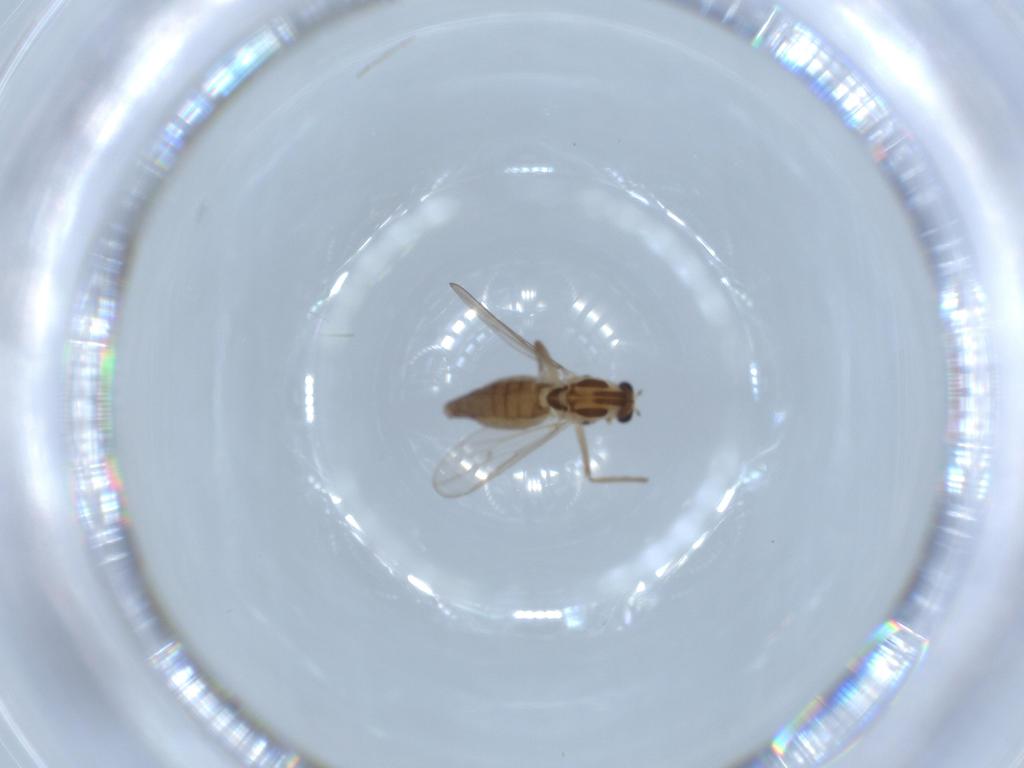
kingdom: Animalia
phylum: Arthropoda
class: Insecta
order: Diptera
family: Chironomidae
